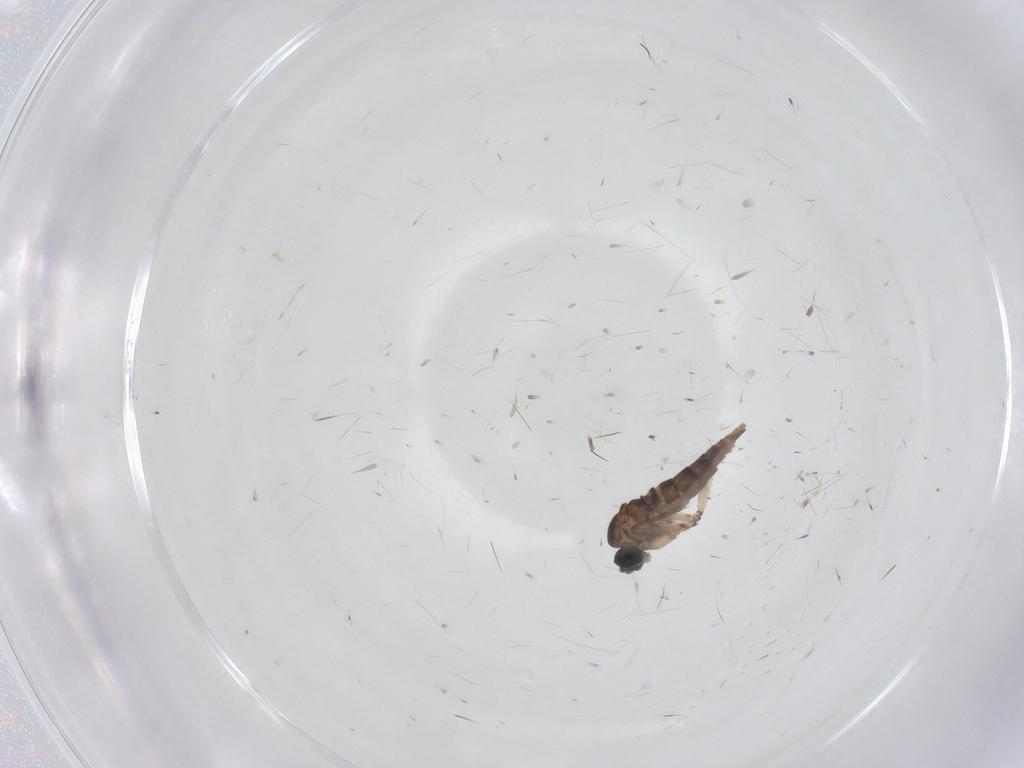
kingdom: Animalia
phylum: Arthropoda
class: Insecta
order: Diptera
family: Sciaridae
